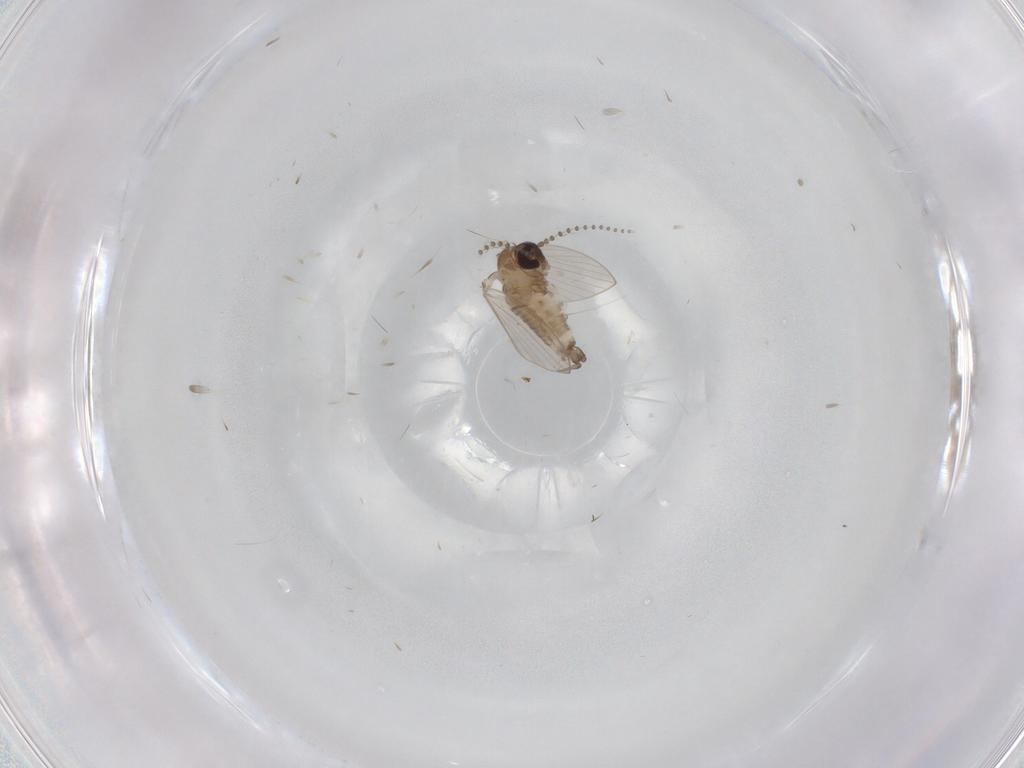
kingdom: Animalia
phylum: Arthropoda
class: Insecta
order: Diptera
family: Phoridae
